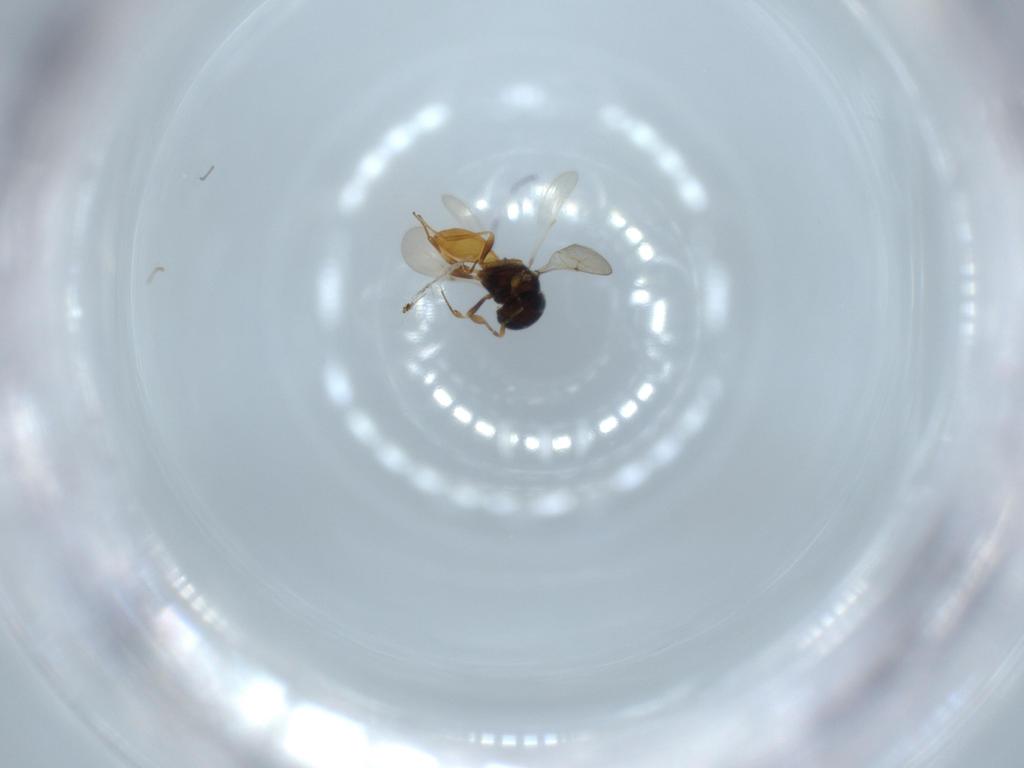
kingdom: Animalia
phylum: Arthropoda
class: Insecta
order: Hymenoptera
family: Scelionidae
